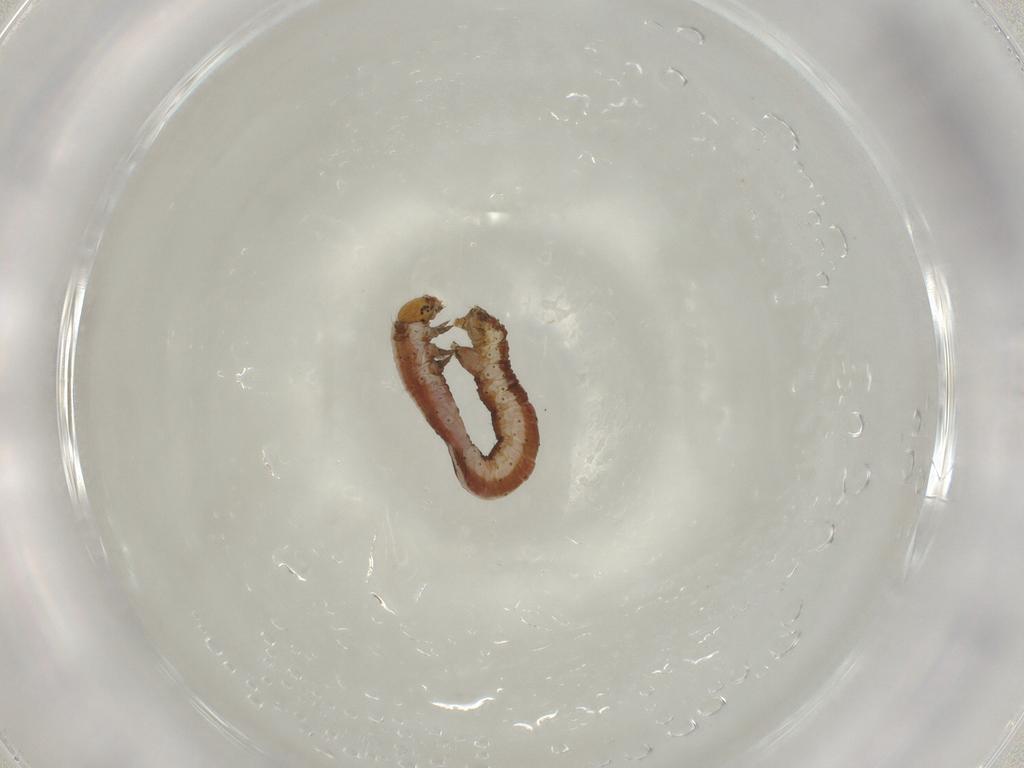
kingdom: Animalia
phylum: Arthropoda
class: Insecta
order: Lepidoptera
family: Geometridae
